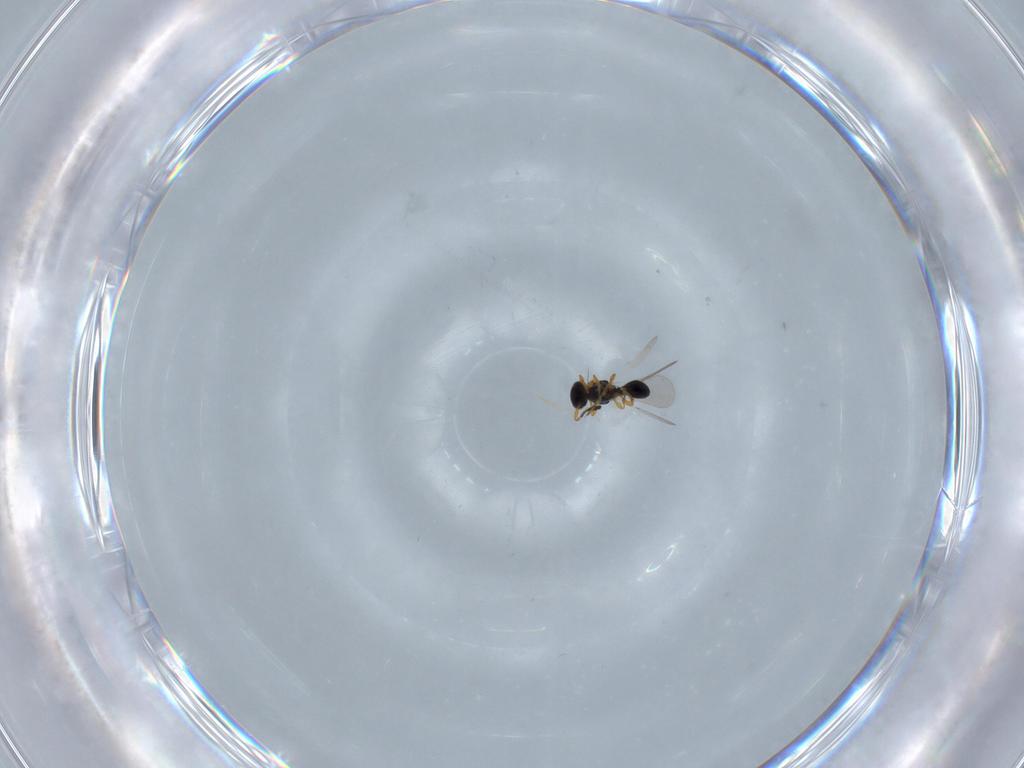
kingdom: Animalia
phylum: Arthropoda
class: Insecta
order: Hymenoptera
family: Platygastridae
